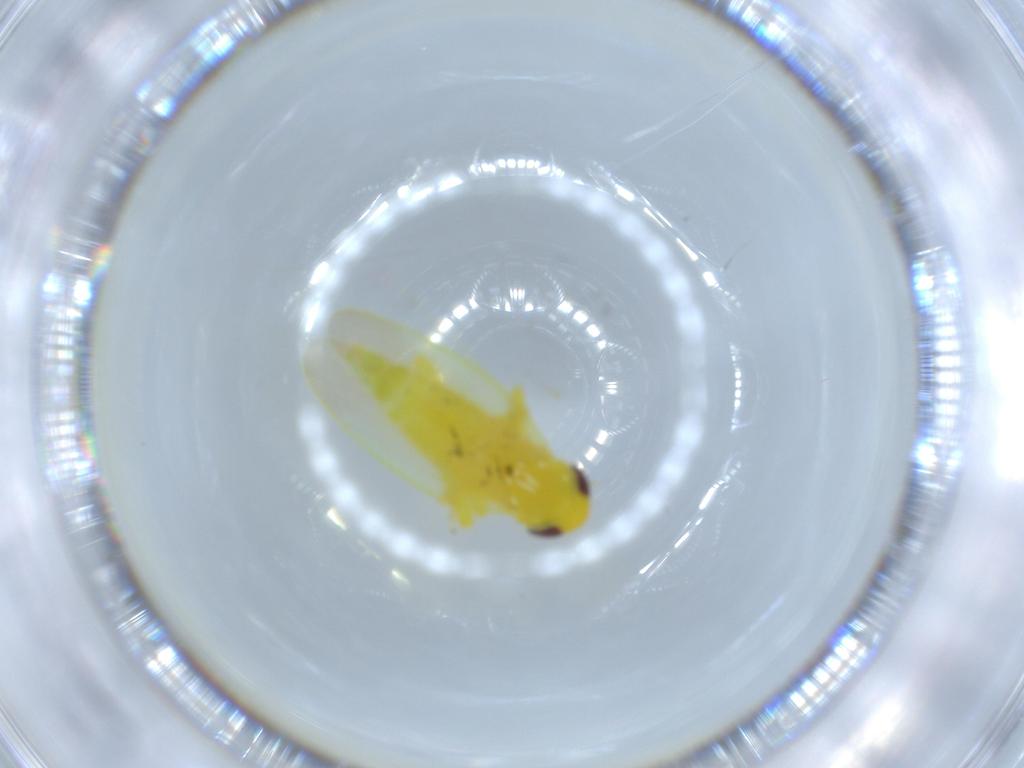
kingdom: Animalia
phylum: Arthropoda
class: Insecta
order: Hemiptera
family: Cicadellidae
